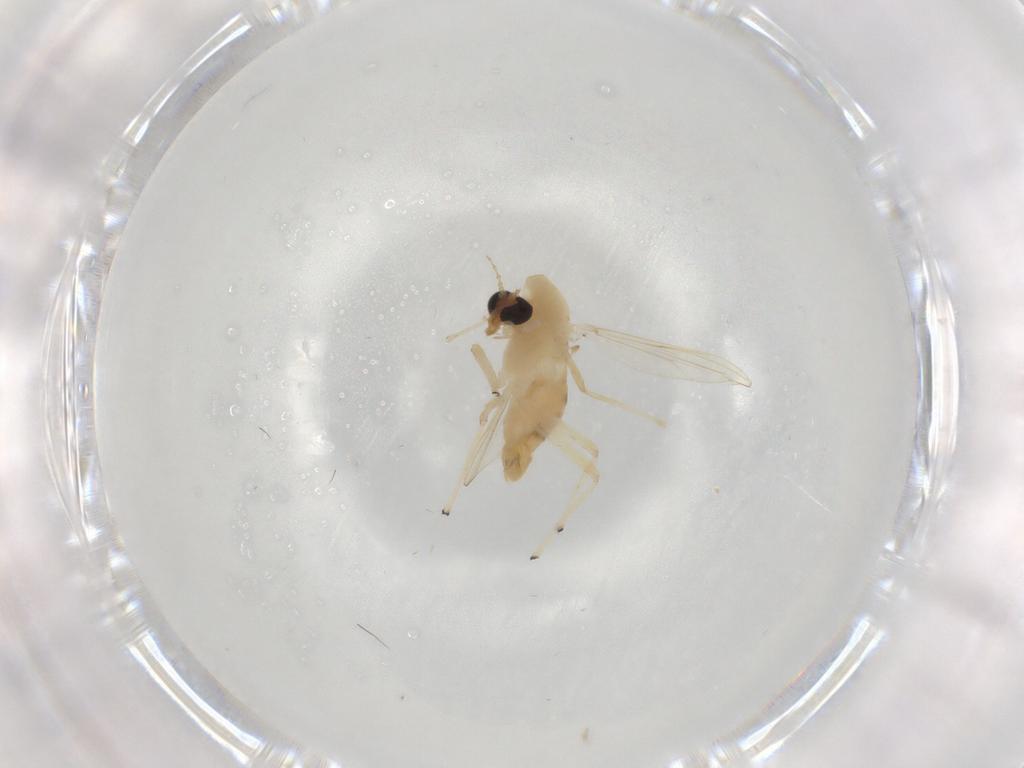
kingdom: Animalia
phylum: Arthropoda
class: Insecta
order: Diptera
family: Chironomidae
